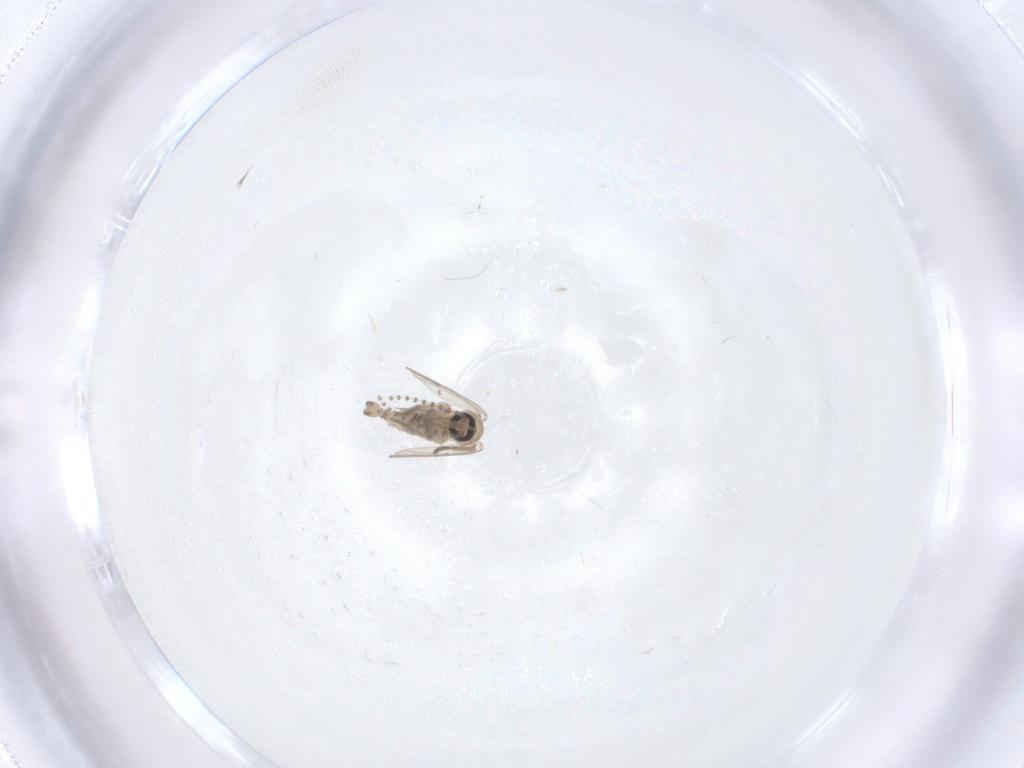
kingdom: Animalia
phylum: Arthropoda
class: Insecta
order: Diptera
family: Psychodidae
